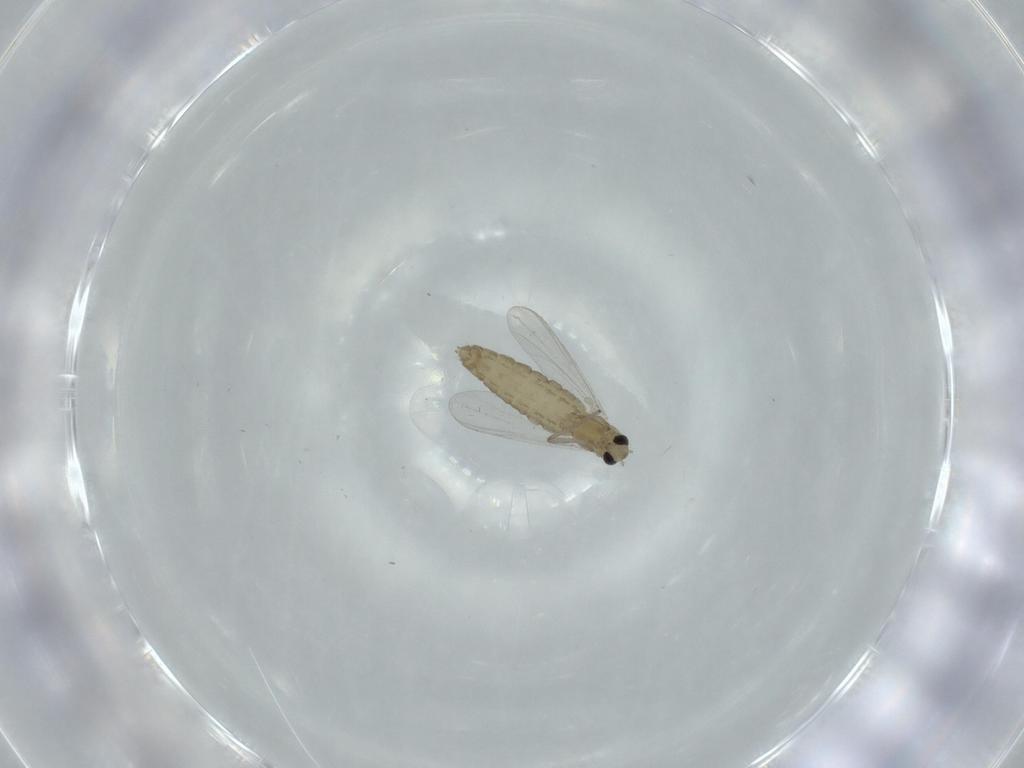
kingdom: Animalia
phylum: Arthropoda
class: Insecta
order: Diptera
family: Chironomidae
